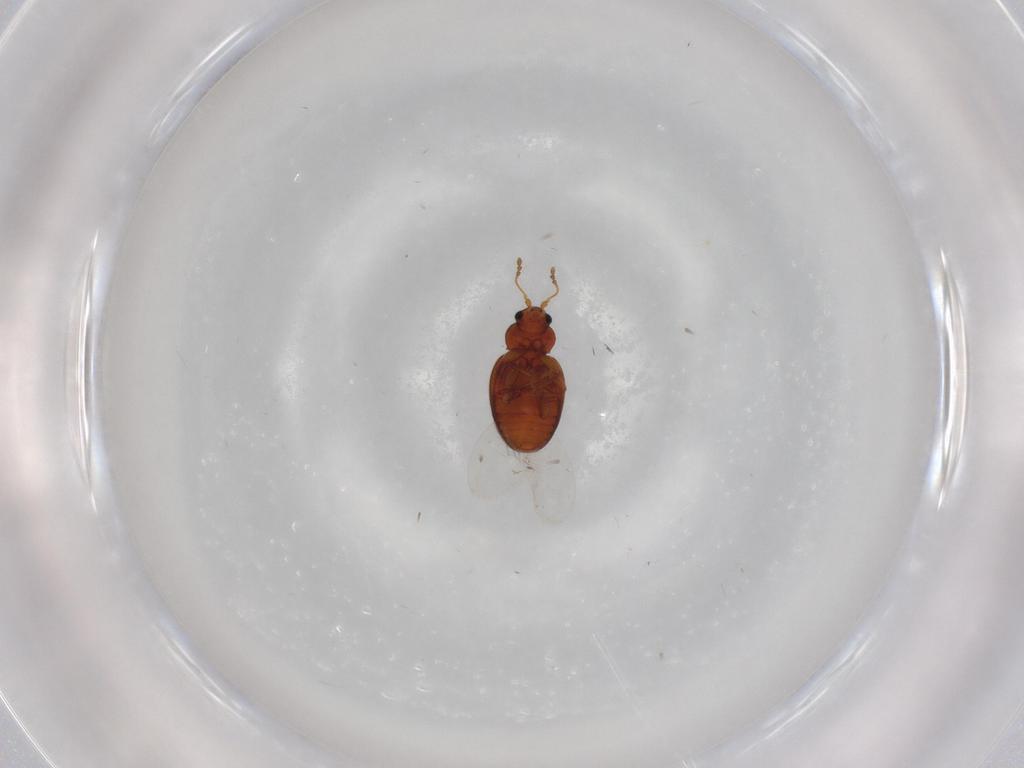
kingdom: Animalia
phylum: Arthropoda
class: Insecta
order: Coleoptera
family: Latridiidae
